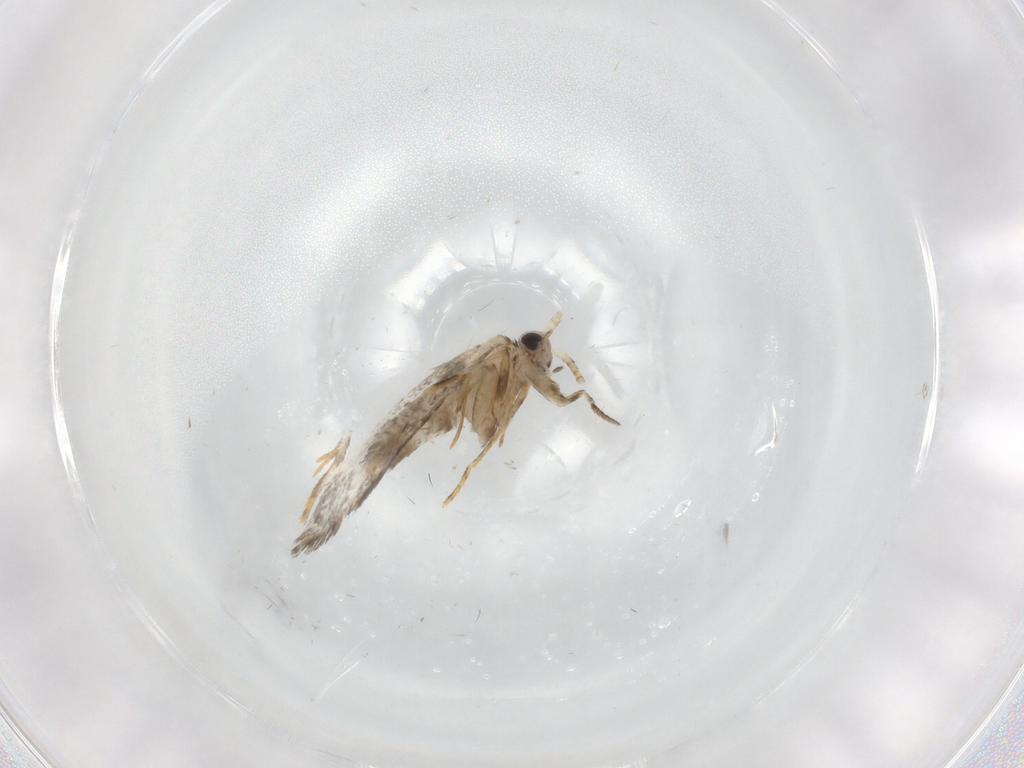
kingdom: Animalia
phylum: Arthropoda
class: Insecta
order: Lepidoptera
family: Tineidae
